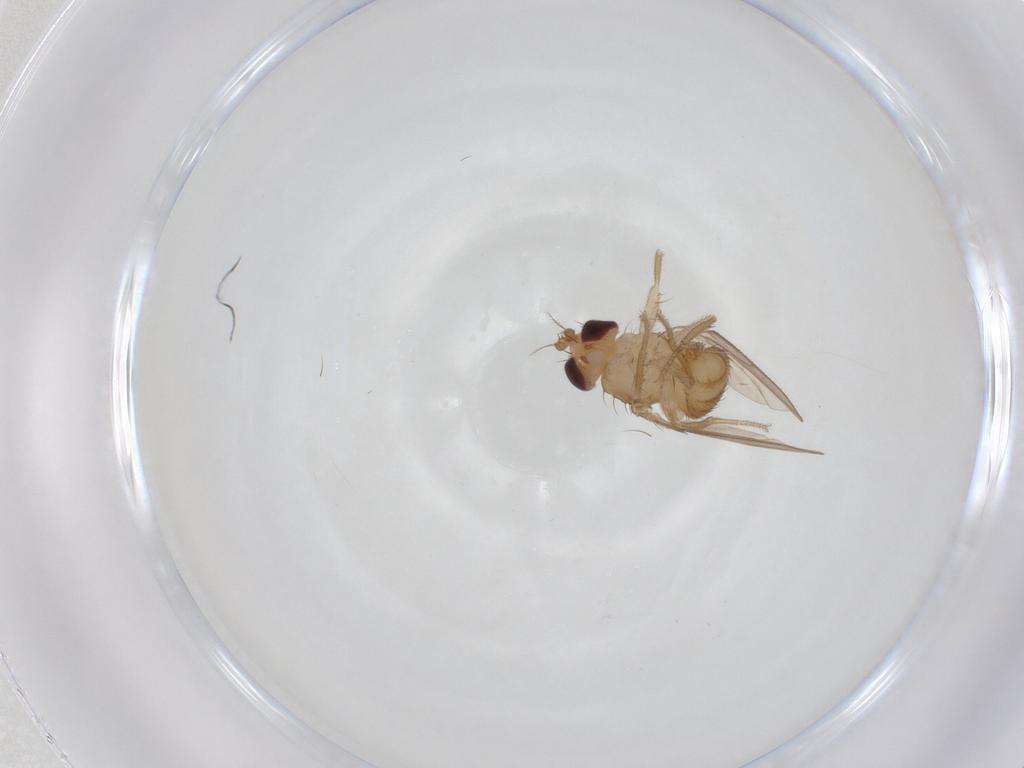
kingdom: Animalia
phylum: Arthropoda
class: Insecta
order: Diptera
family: Drosophilidae
